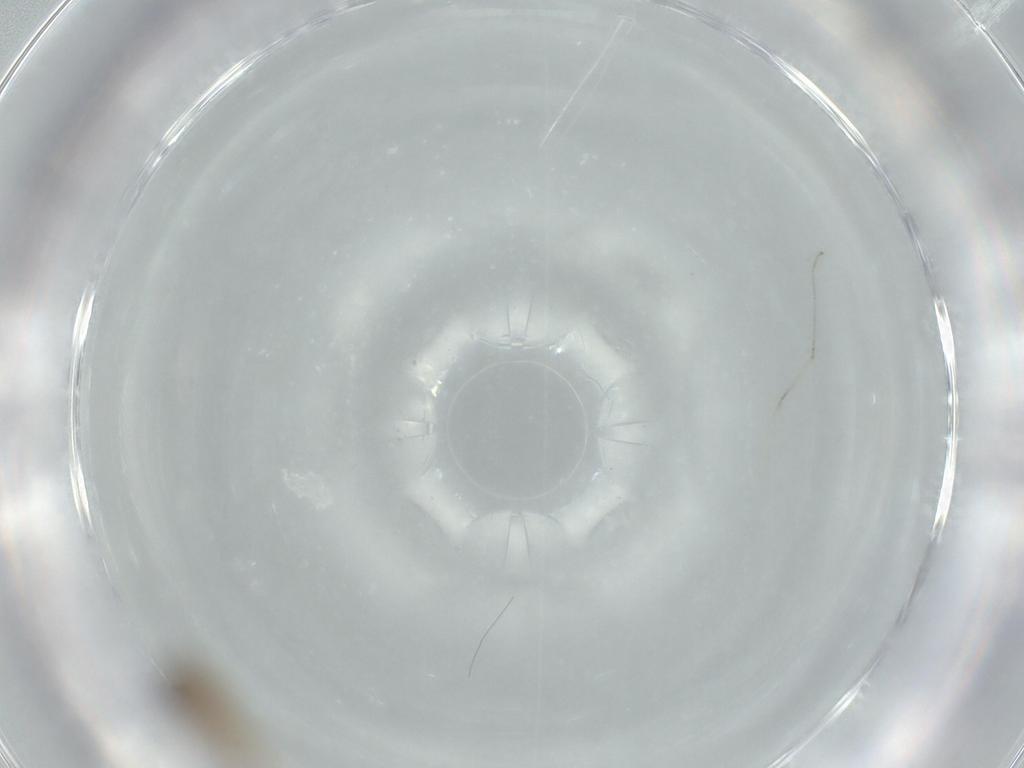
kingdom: Animalia
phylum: Arthropoda
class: Insecta
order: Diptera
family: Cecidomyiidae
